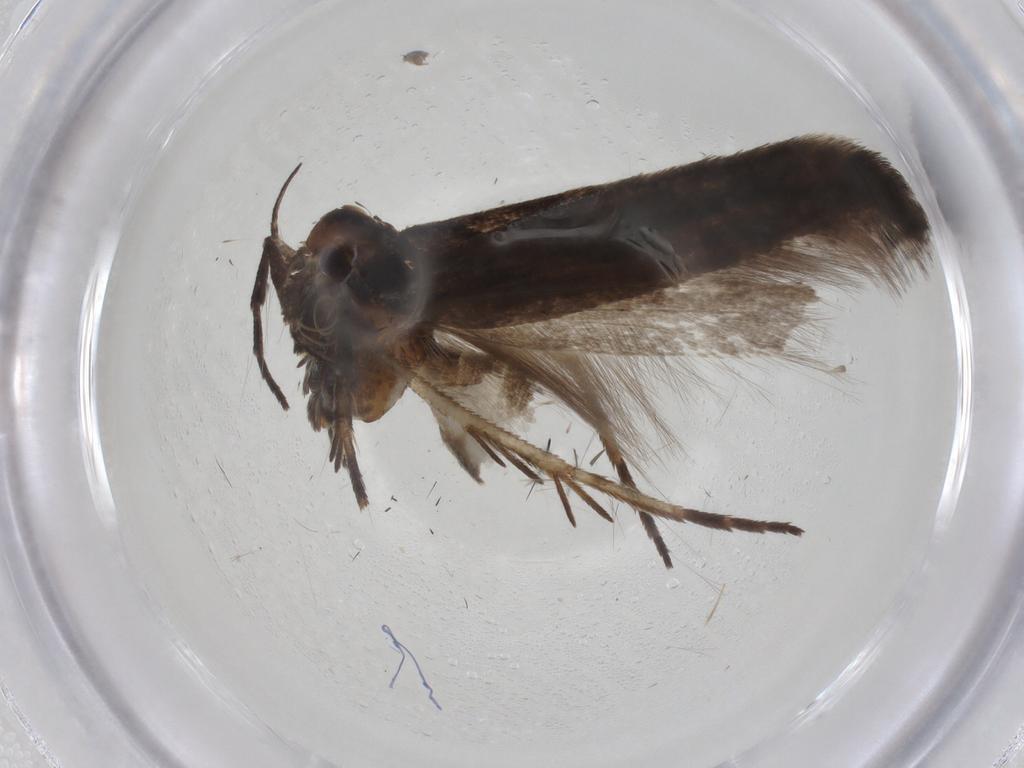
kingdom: Animalia
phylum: Arthropoda
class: Insecta
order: Lepidoptera
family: Gelechiidae
